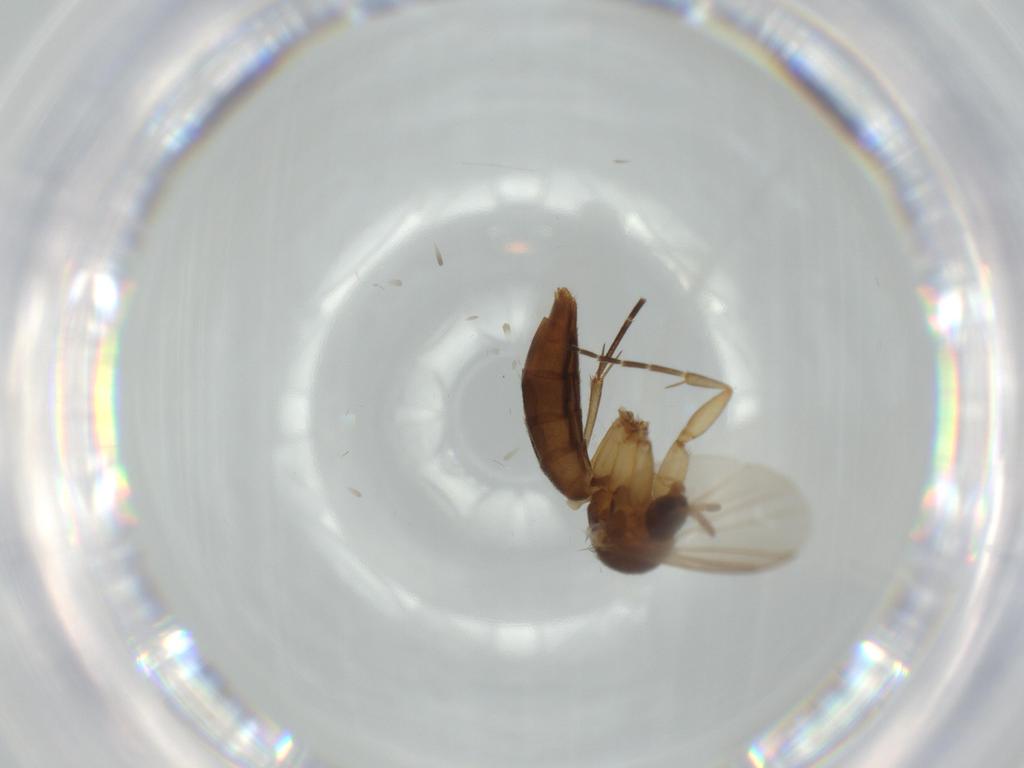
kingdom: Animalia
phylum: Arthropoda
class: Insecta
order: Diptera
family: Mycetophilidae
